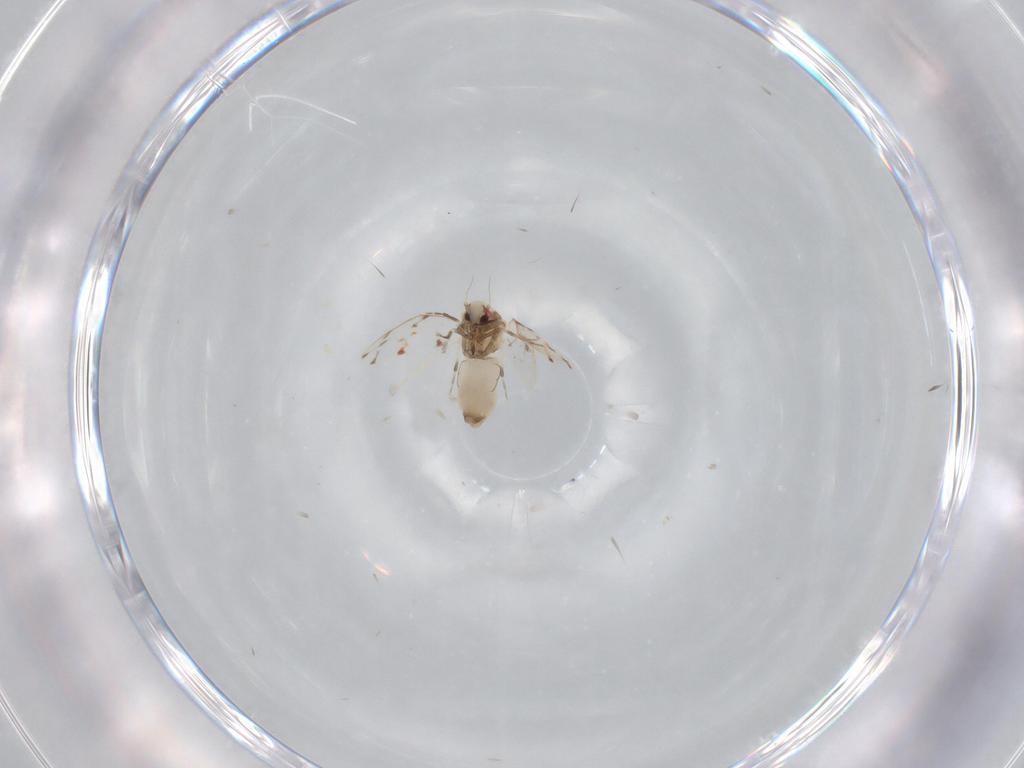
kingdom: Animalia
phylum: Arthropoda
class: Insecta
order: Hemiptera
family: Aleyrodidae
